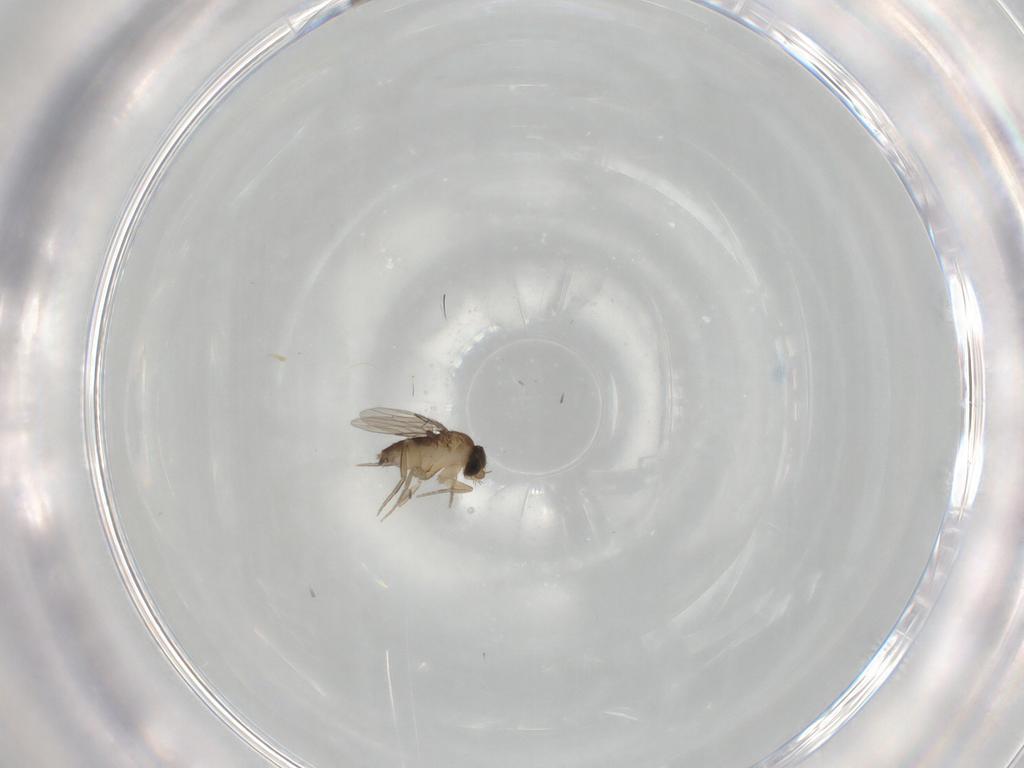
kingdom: Animalia
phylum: Arthropoda
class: Insecta
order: Diptera
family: Phoridae
